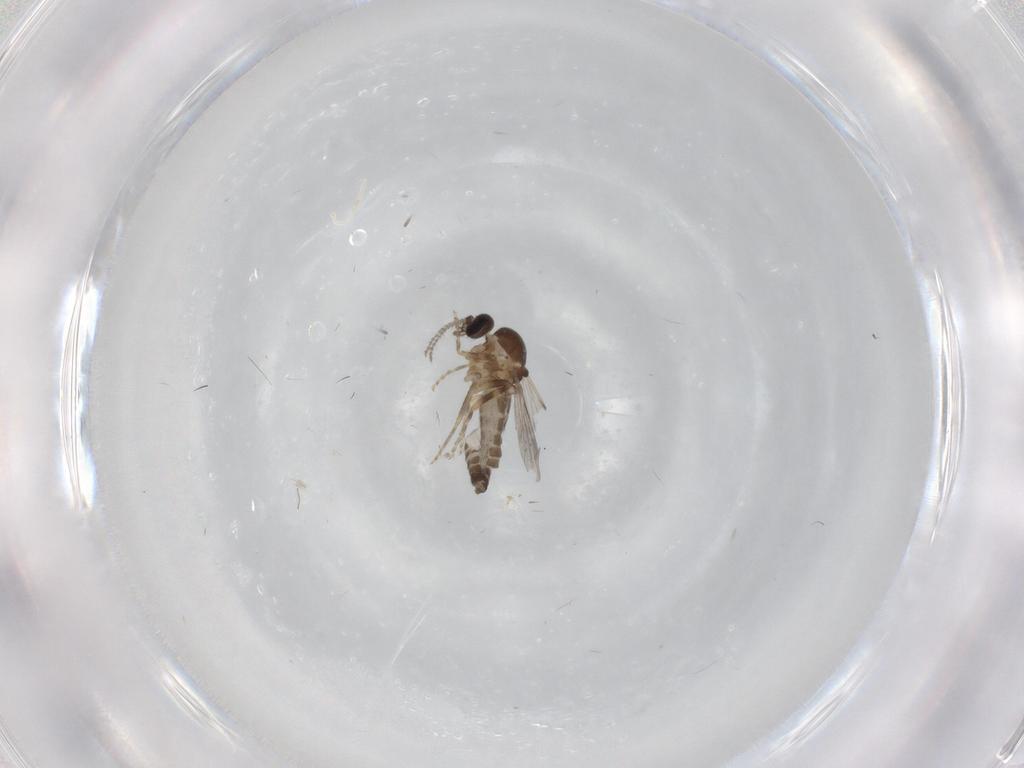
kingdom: Animalia
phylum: Arthropoda
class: Insecta
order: Diptera
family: Ceratopogonidae
